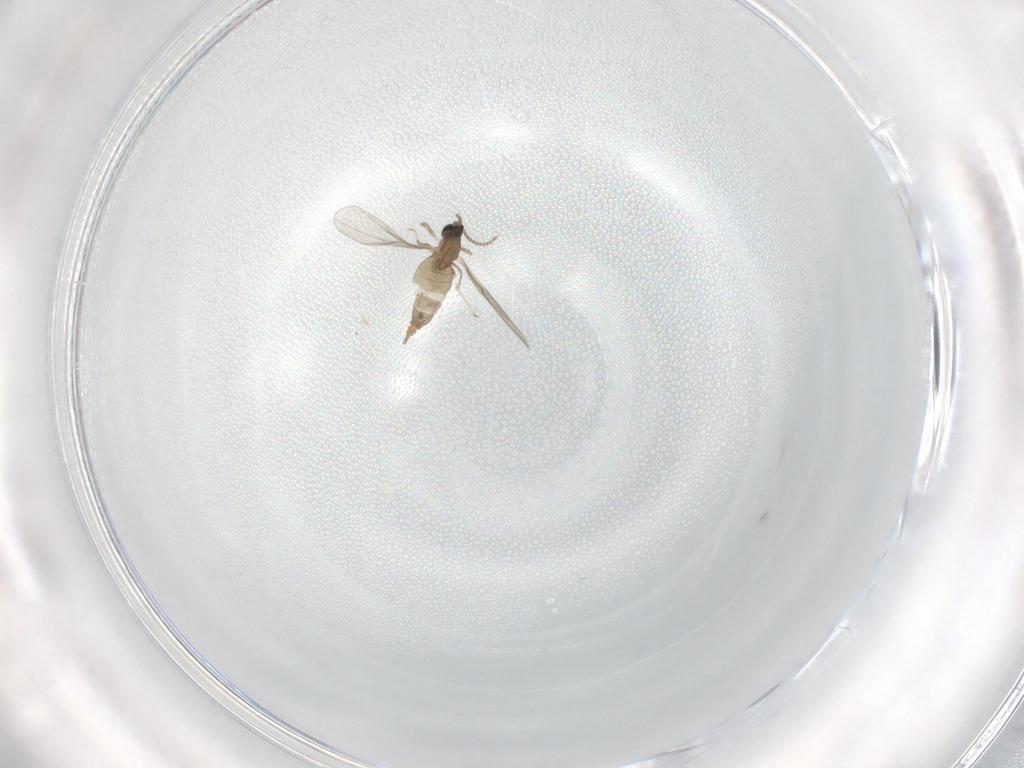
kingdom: Animalia
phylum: Arthropoda
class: Insecta
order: Diptera
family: Cecidomyiidae
